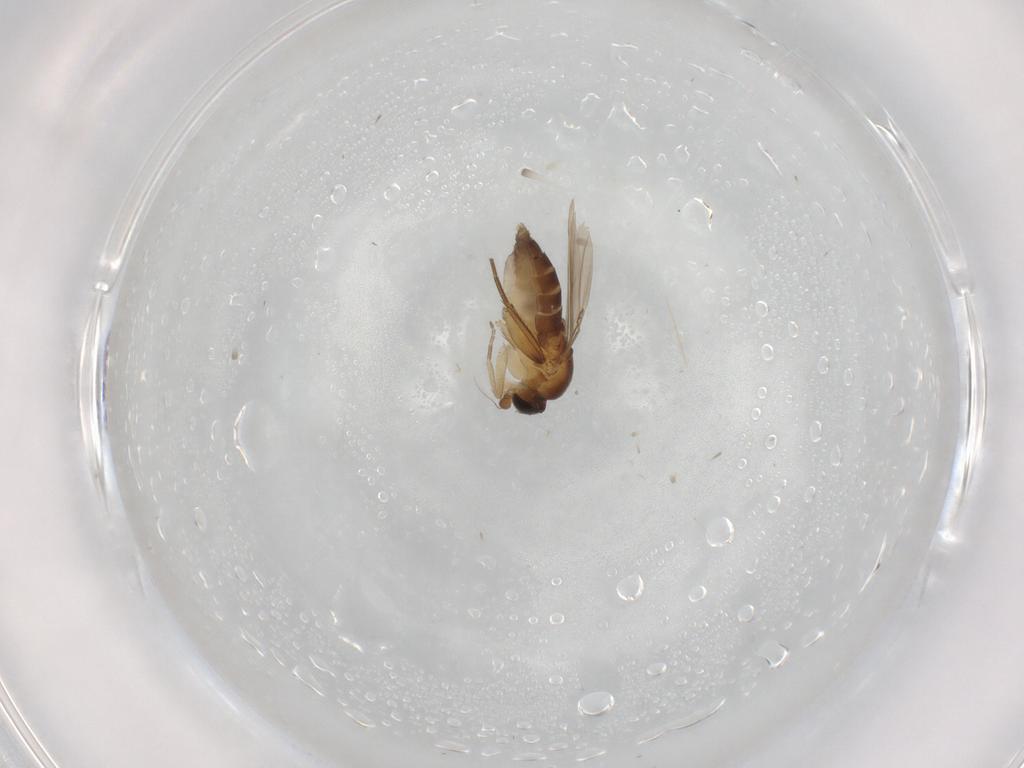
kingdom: Animalia
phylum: Arthropoda
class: Insecta
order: Diptera
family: Phoridae
